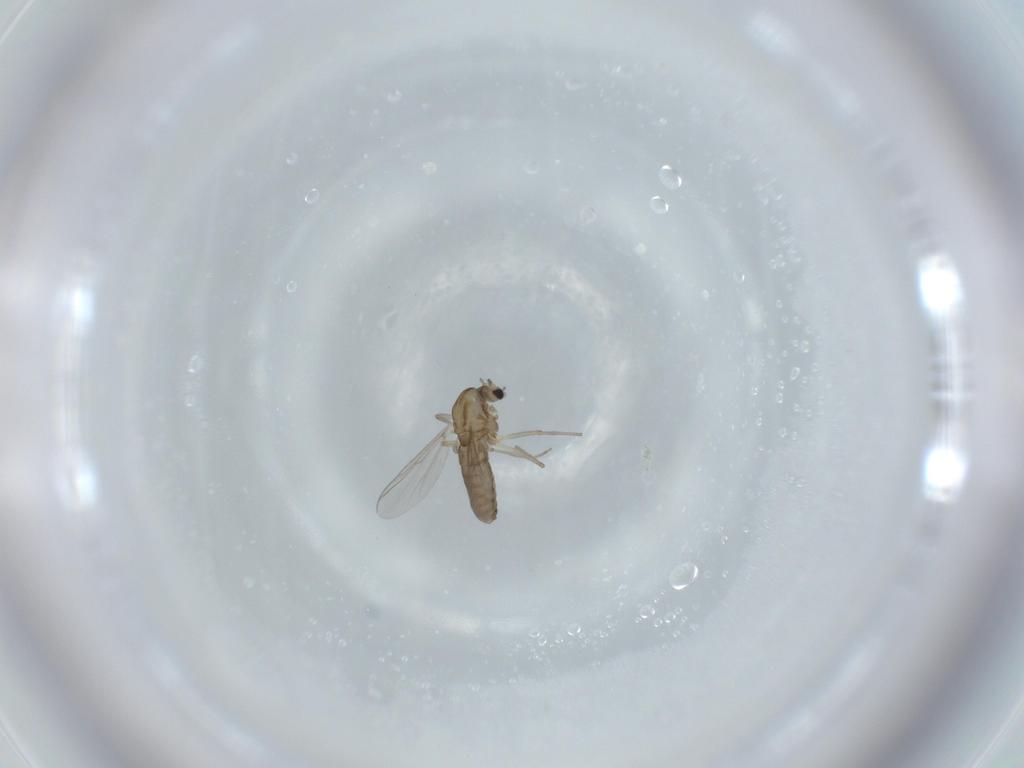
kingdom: Animalia
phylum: Arthropoda
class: Insecta
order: Diptera
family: Chironomidae
